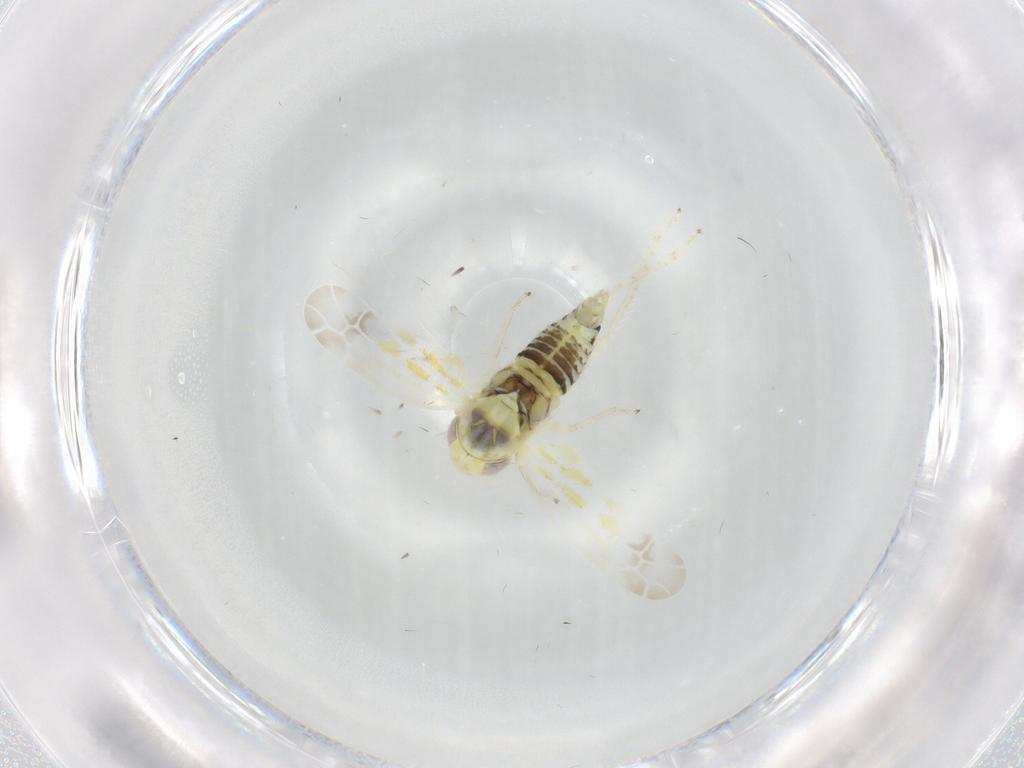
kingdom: Animalia
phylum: Arthropoda
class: Insecta
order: Hemiptera
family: Cicadellidae
